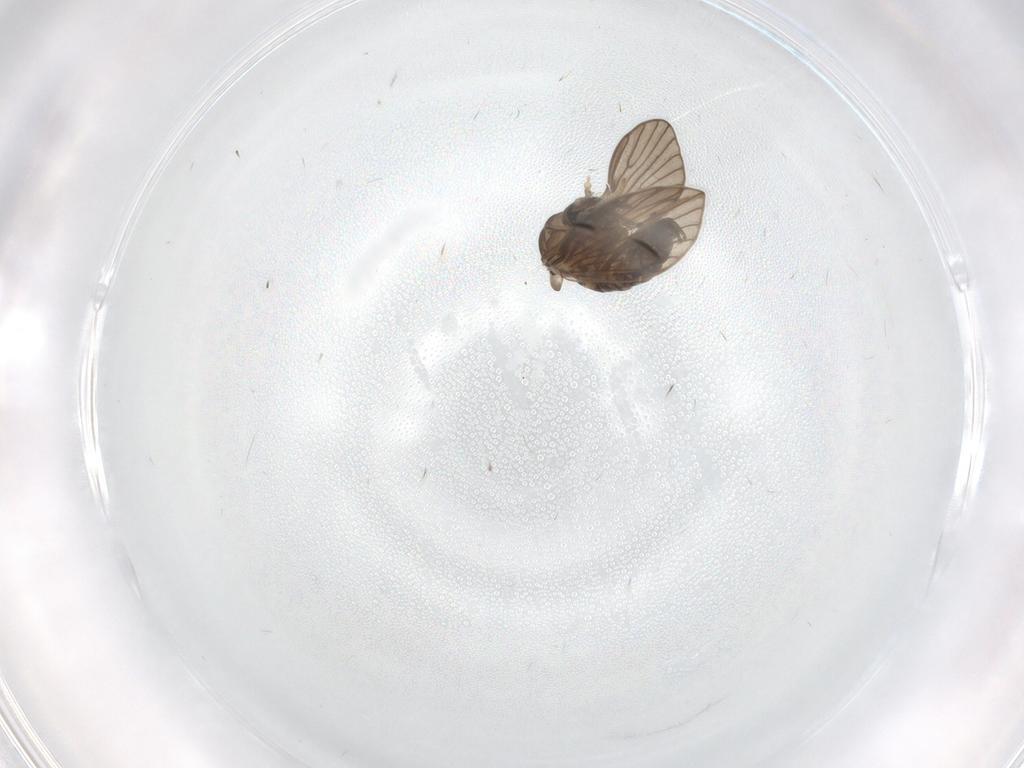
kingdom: Animalia
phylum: Arthropoda
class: Insecta
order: Diptera
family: Psychodidae
